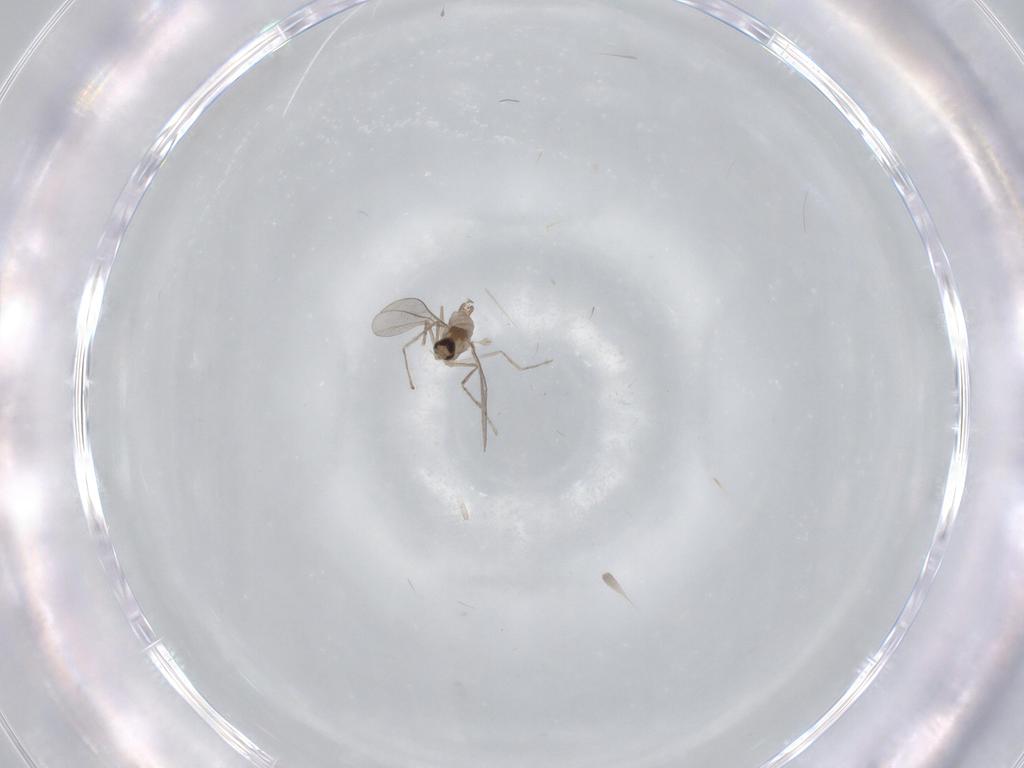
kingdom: Animalia
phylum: Arthropoda
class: Insecta
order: Diptera
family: Cecidomyiidae
